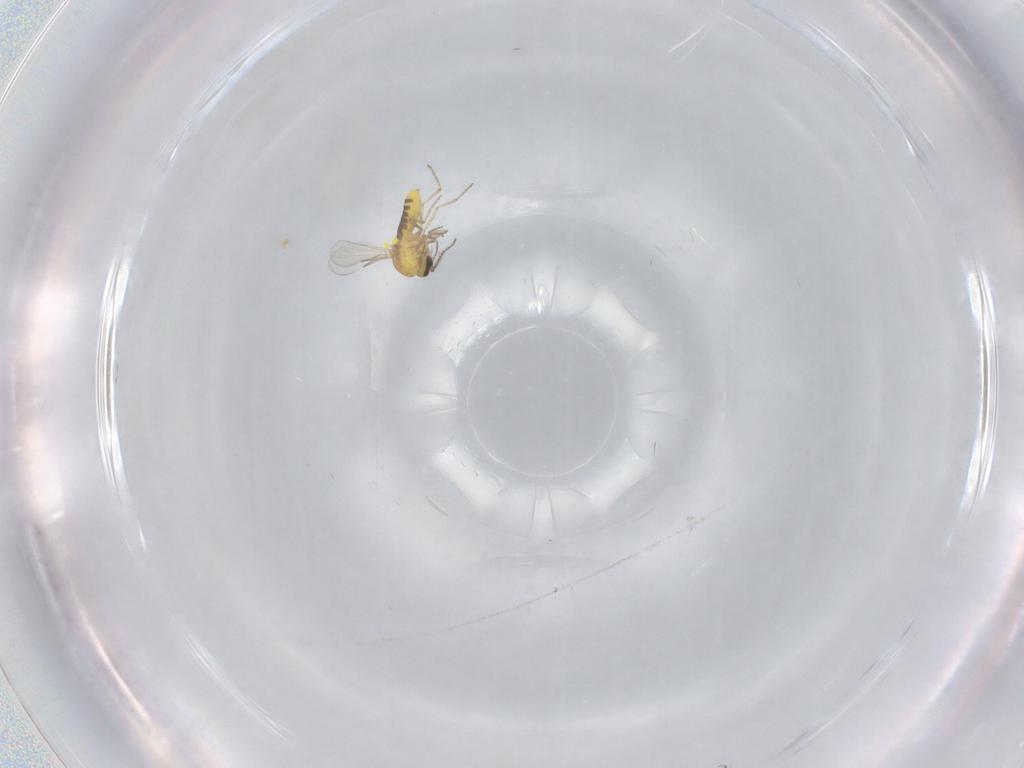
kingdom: Animalia
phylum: Arthropoda
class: Insecta
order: Diptera
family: Phoridae
